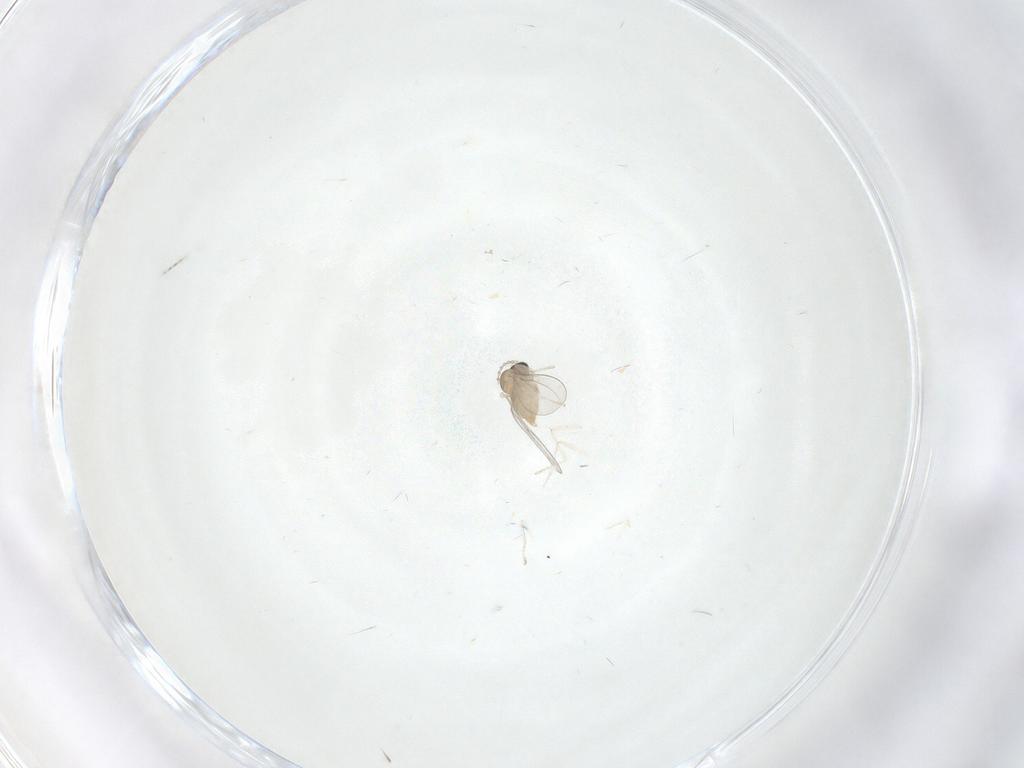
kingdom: Animalia
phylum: Arthropoda
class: Insecta
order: Diptera
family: Cecidomyiidae
